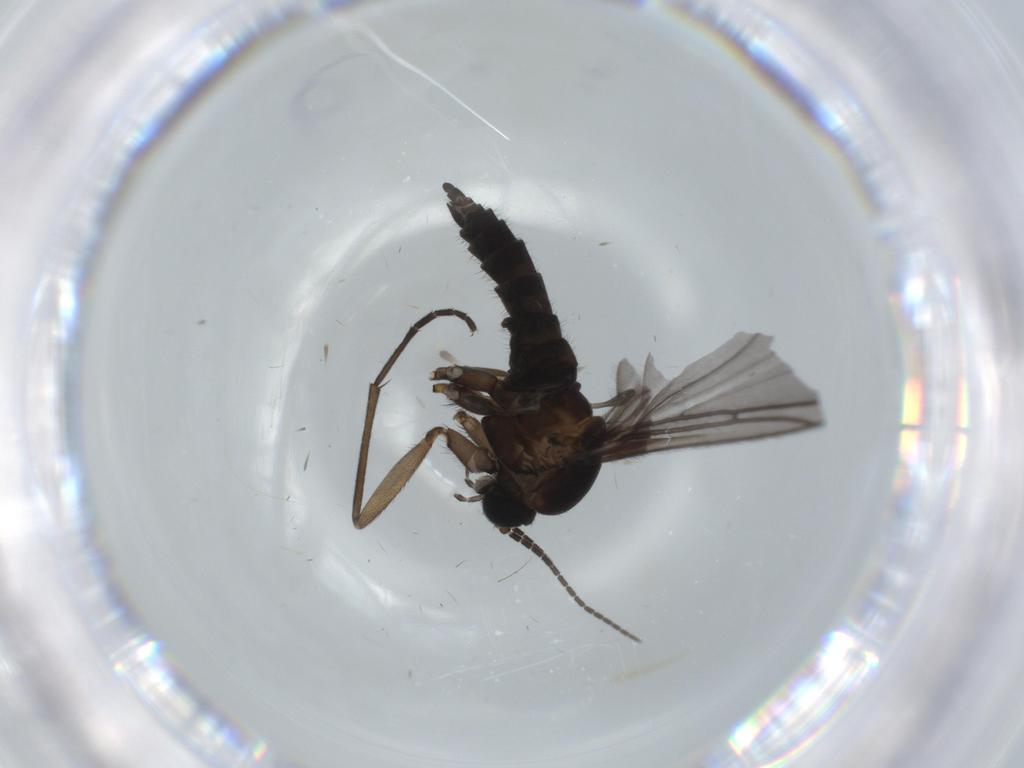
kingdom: Animalia
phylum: Arthropoda
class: Insecta
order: Diptera
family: Sciaridae
